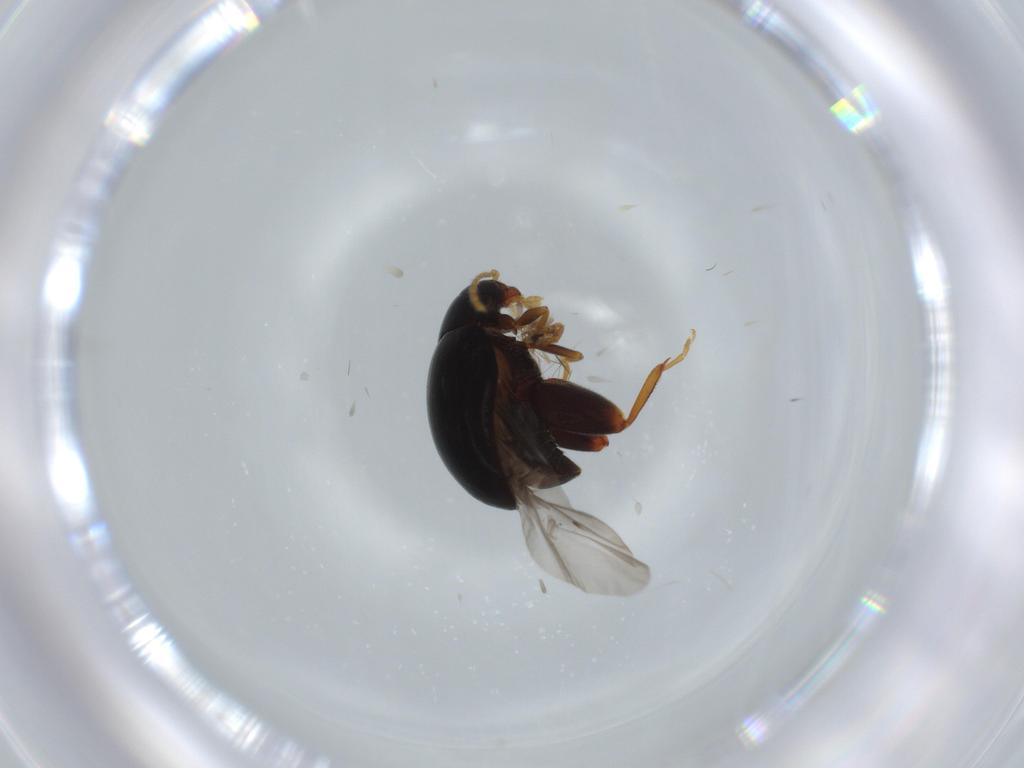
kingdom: Animalia
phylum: Arthropoda
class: Insecta
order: Coleoptera
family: Chrysomelidae
